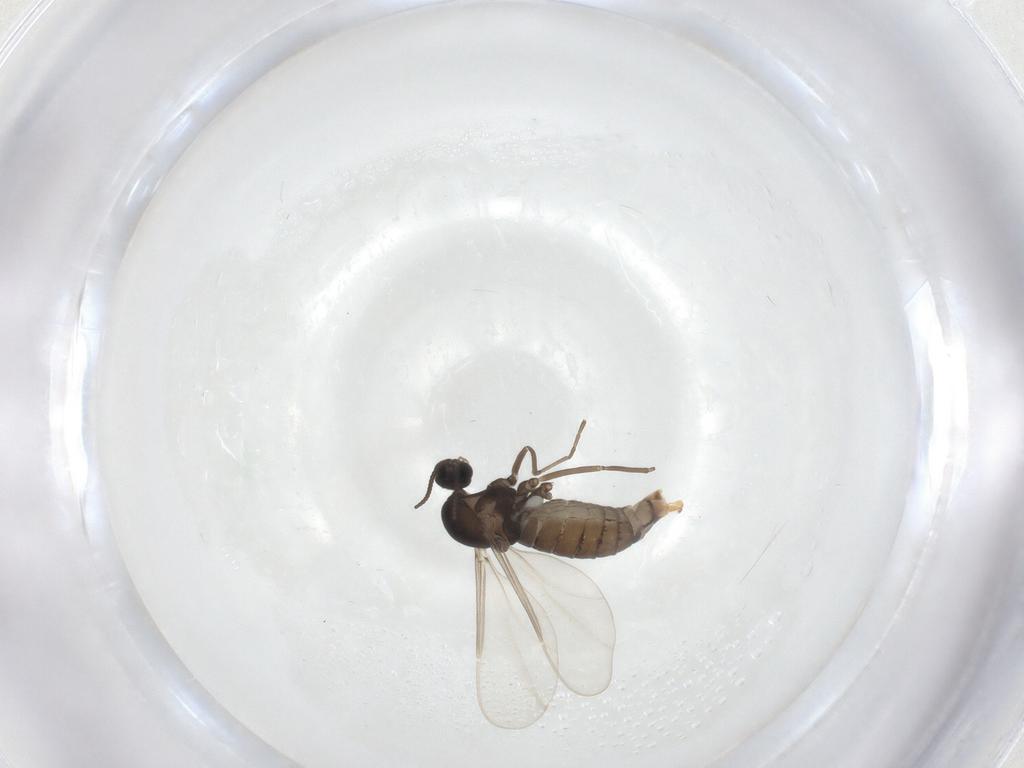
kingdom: Animalia
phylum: Arthropoda
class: Insecta
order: Diptera
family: Cecidomyiidae
